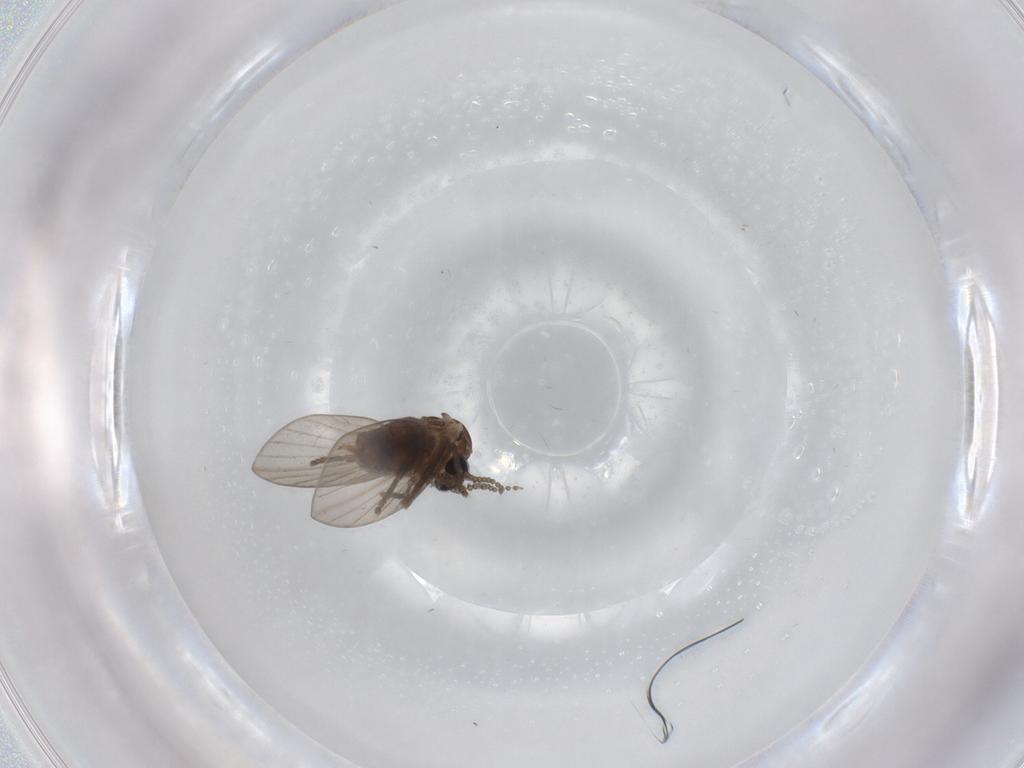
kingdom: Animalia
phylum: Arthropoda
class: Insecta
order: Diptera
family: Psychodidae
